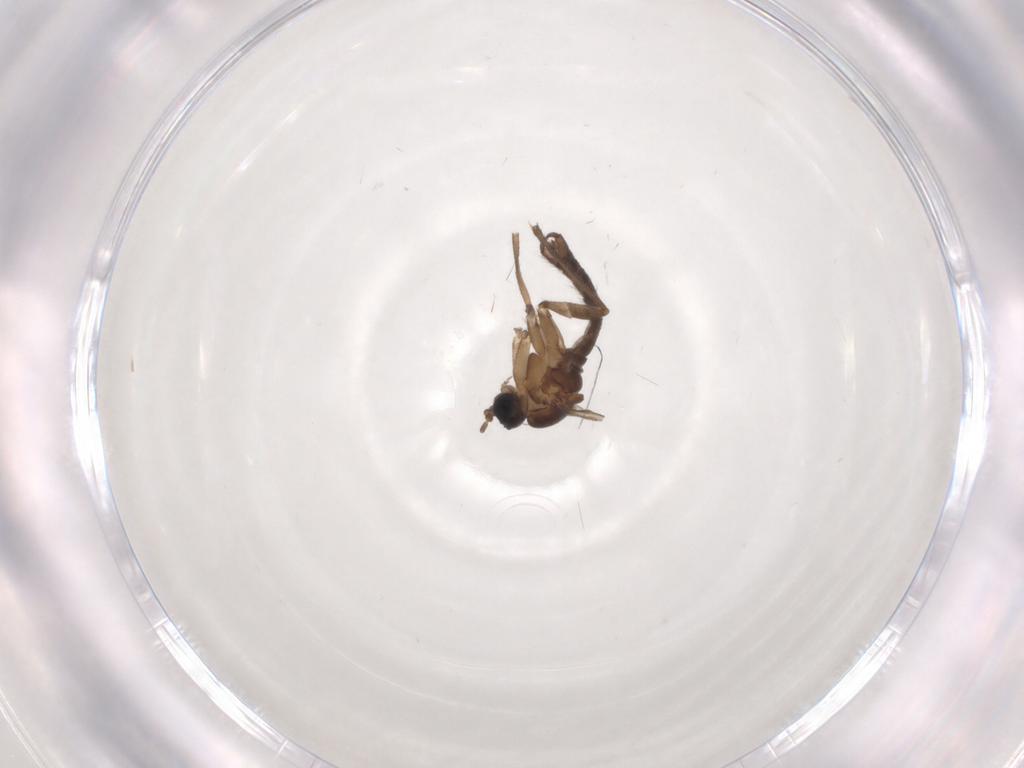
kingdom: Animalia
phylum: Arthropoda
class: Insecta
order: Diptera
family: Sciaridae
